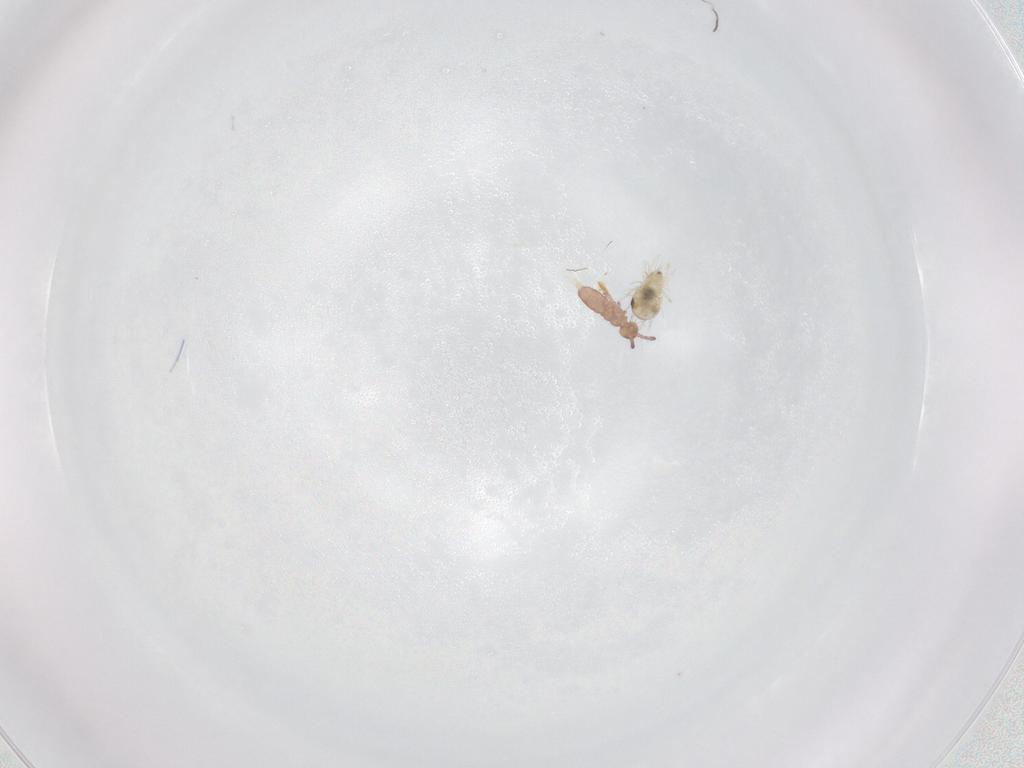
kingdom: Animalia
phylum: Arthropoda
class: Arachnida
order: Sarcoptiformes
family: Humerobatidae
